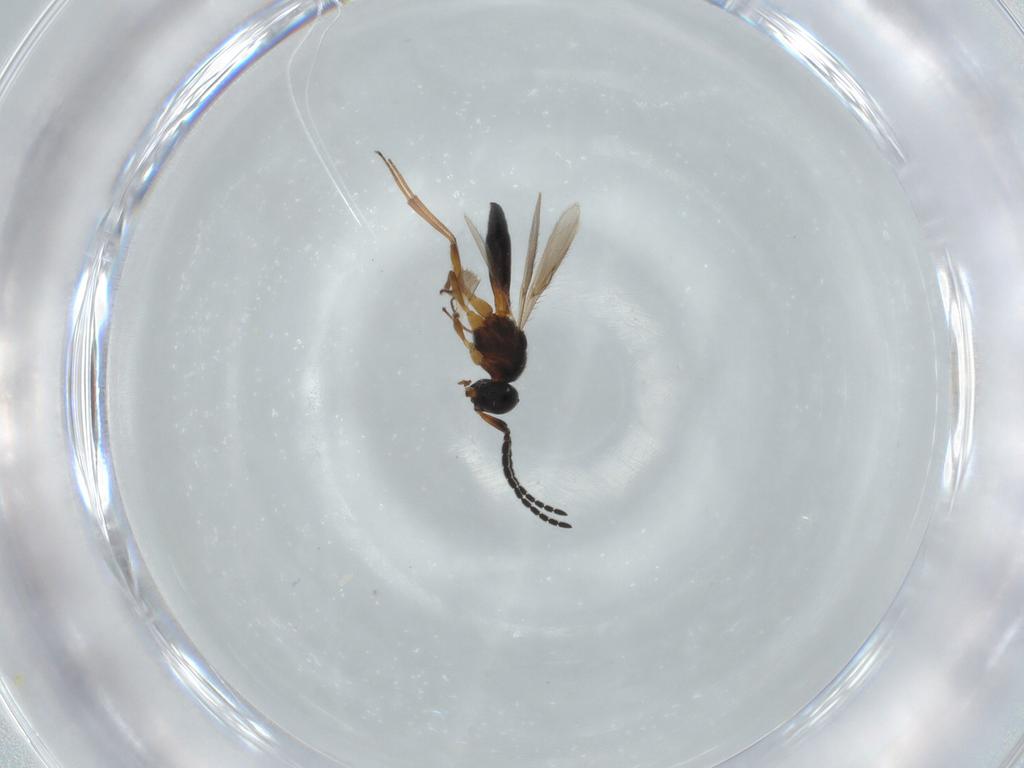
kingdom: Animalia
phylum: Arthropoda
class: Insecta
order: Hymenoptera
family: Scelionidae
